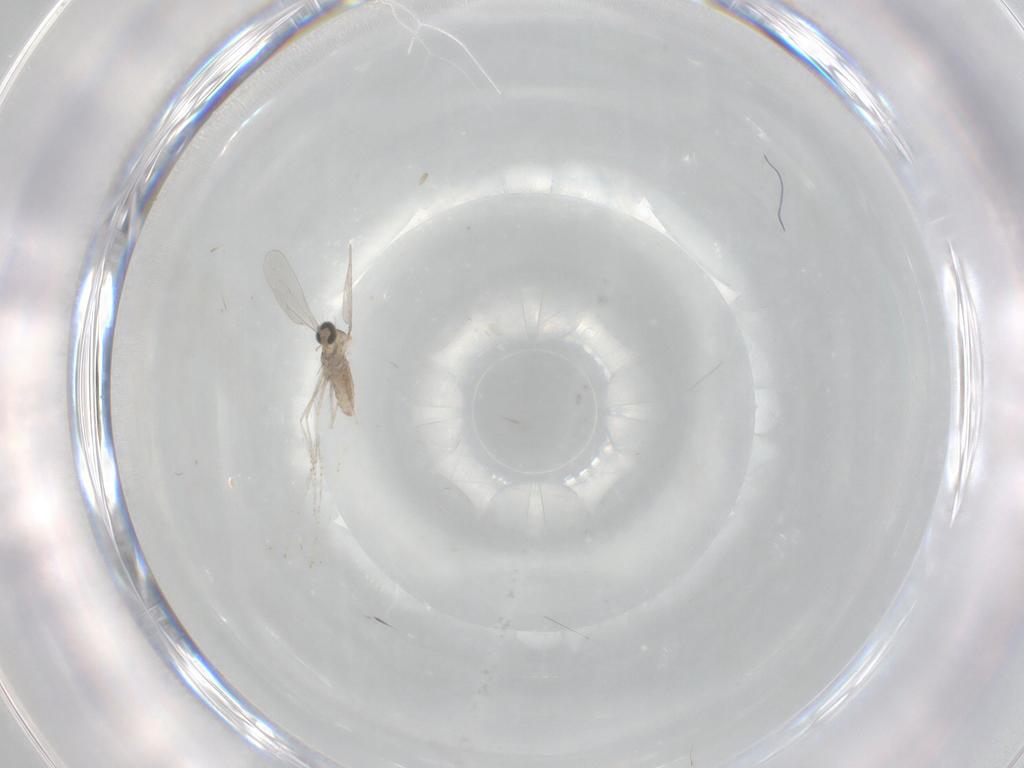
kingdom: Animalia
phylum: Arthropoda
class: Insecta
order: Diptera
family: Cecidomyiidae
